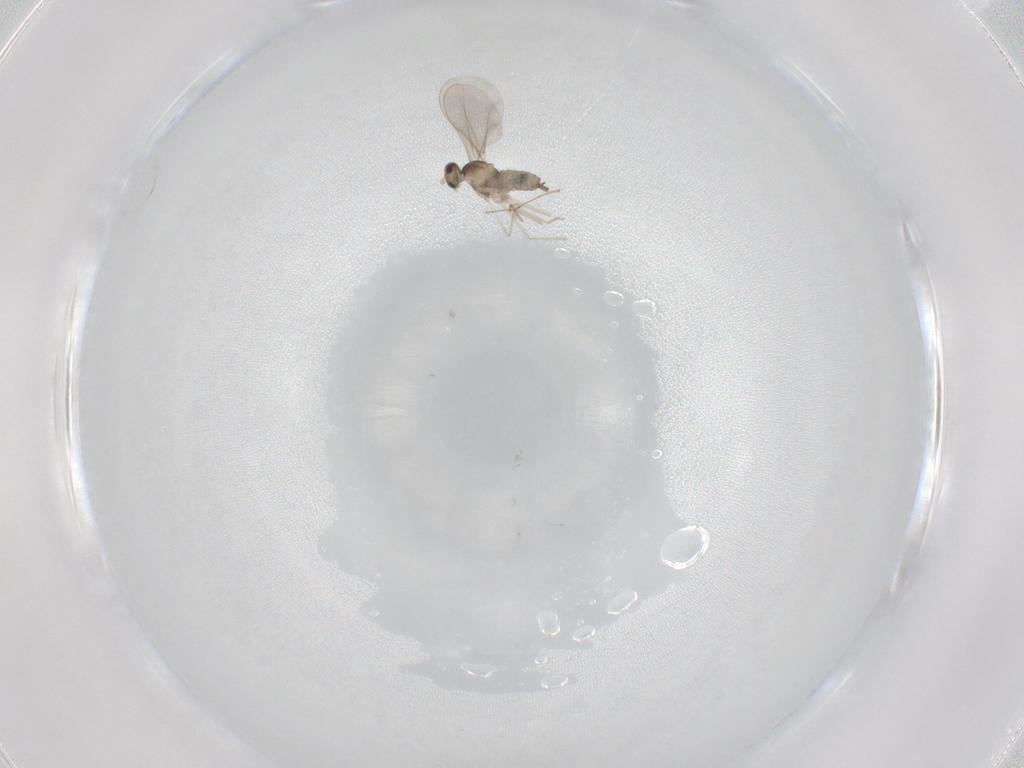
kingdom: Animalia
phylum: Arthropoda
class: Insecta
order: Diptera
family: Cecidomyiidae
